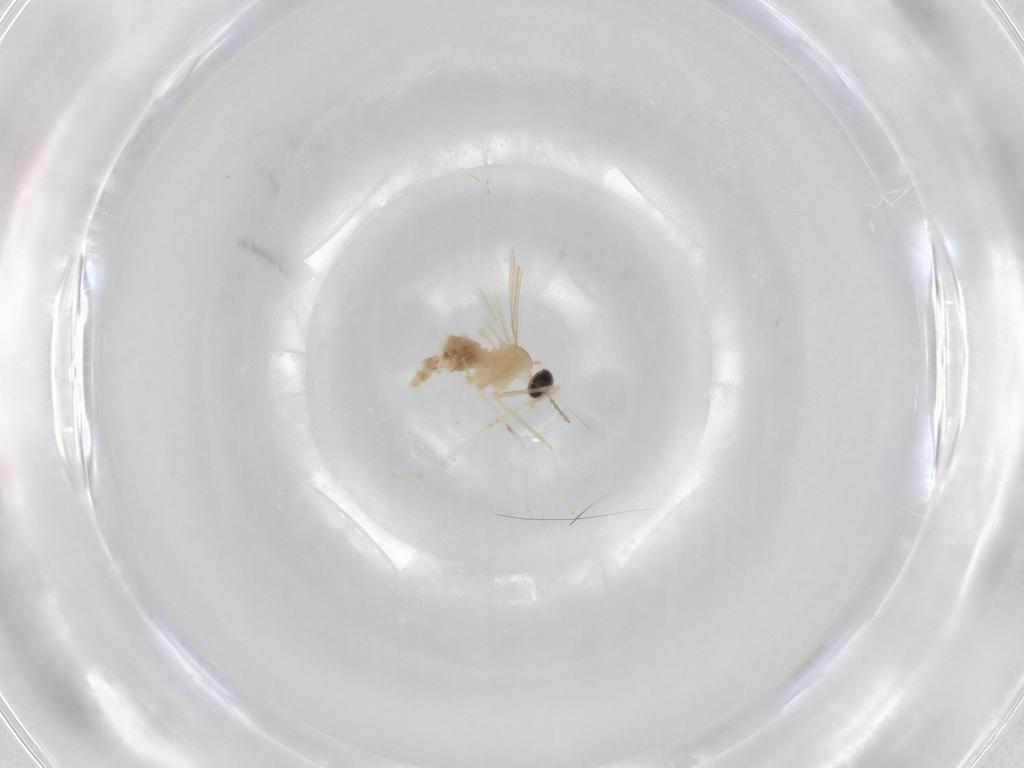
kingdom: Animalia
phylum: Arthropoda
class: Insecta
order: Diptera
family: Cecidomyiidae
